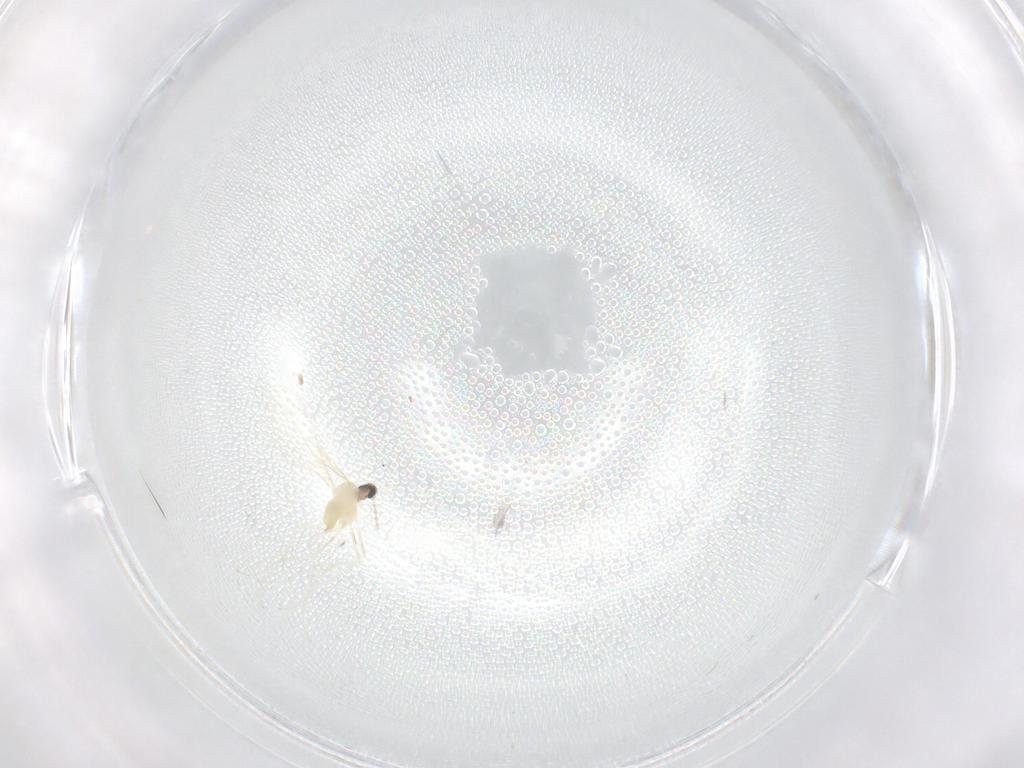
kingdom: Animalia
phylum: Arthropoda
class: Insecta
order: Diptera
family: Cecidomyiidae
